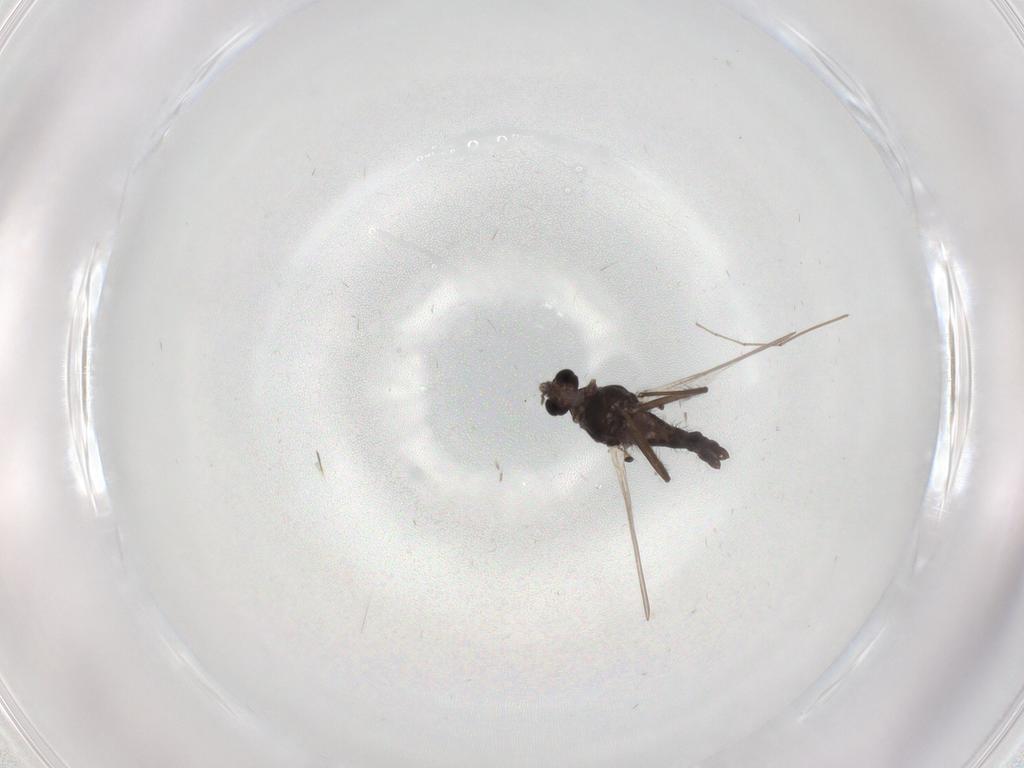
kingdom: Animalia
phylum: Arthropoda
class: Insecta
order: Diptera
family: Chironomidae
